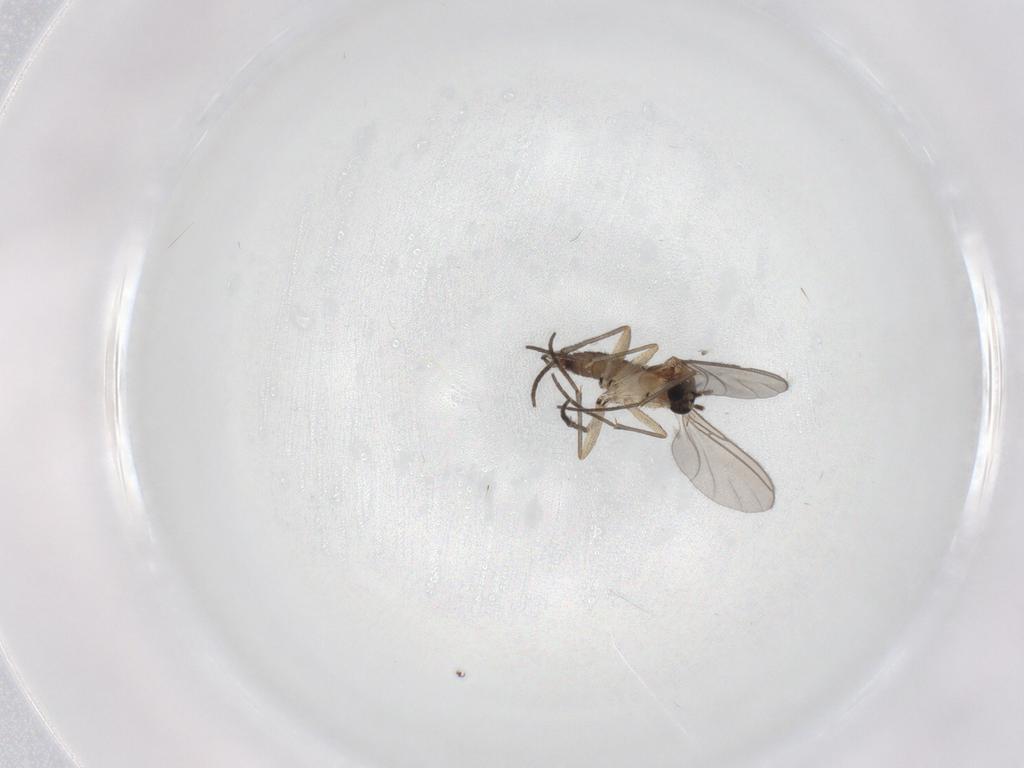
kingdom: Animalia
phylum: Arthropoda
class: Insecta
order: Diptera
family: Sciaridae
